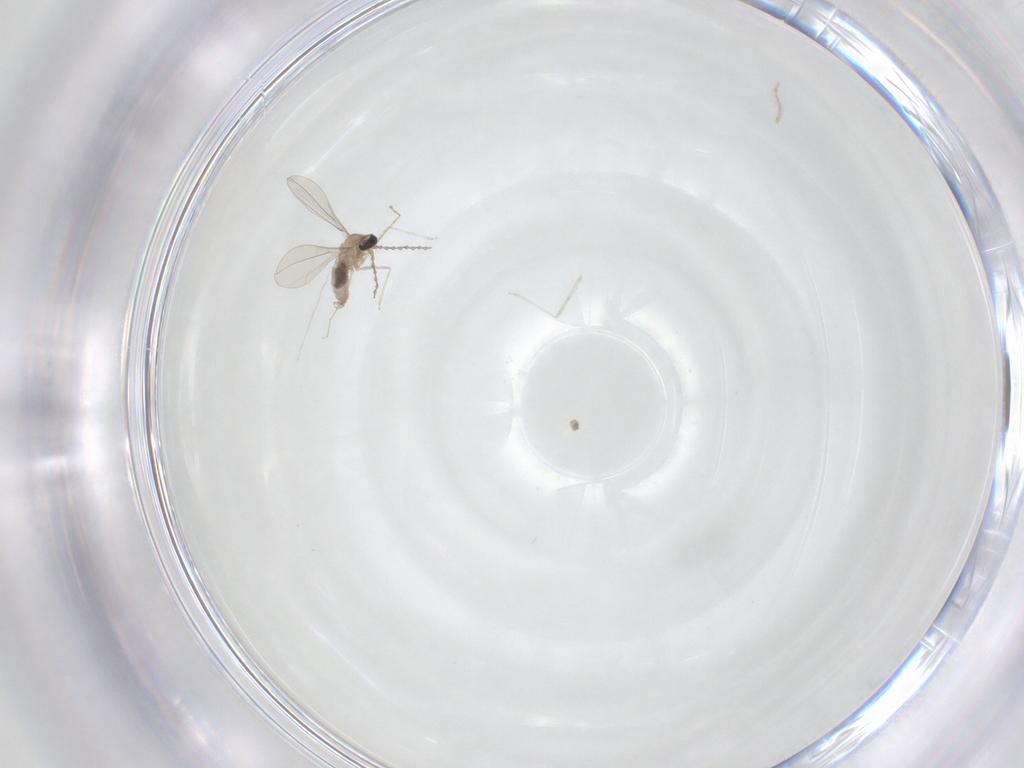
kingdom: Animalia
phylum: Arthropoda
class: Insecta
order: Diptera
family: Cecidomyiidae
